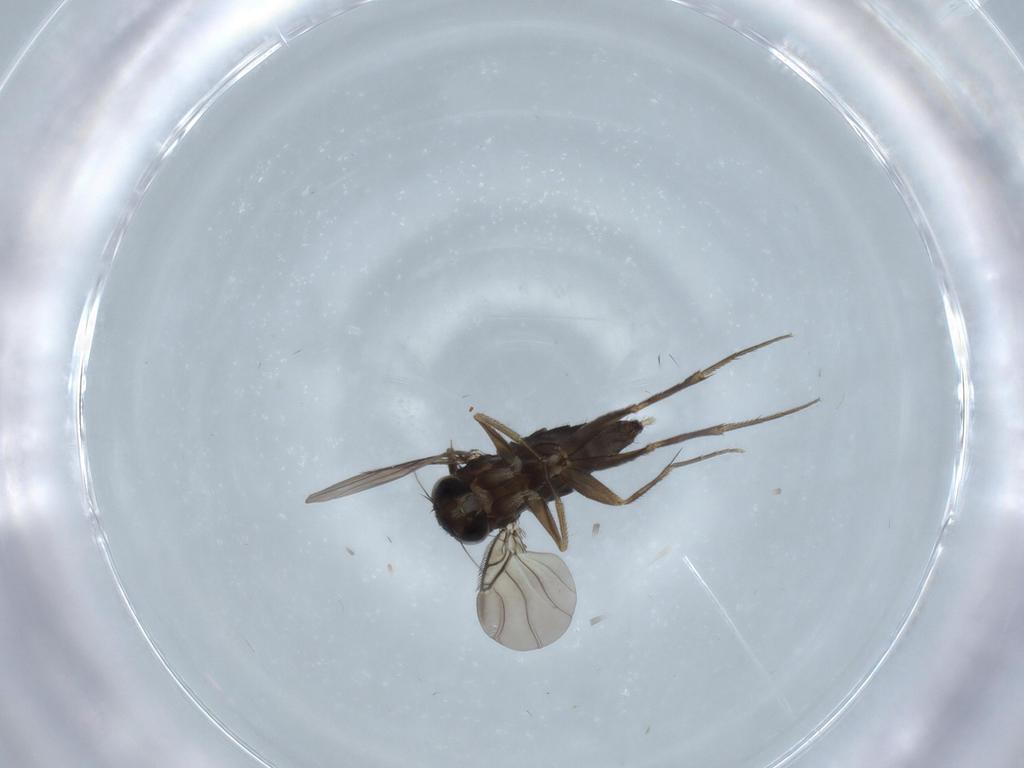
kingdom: Animalia
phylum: Arthropoda
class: Insecta
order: Diptera
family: Phoridae
